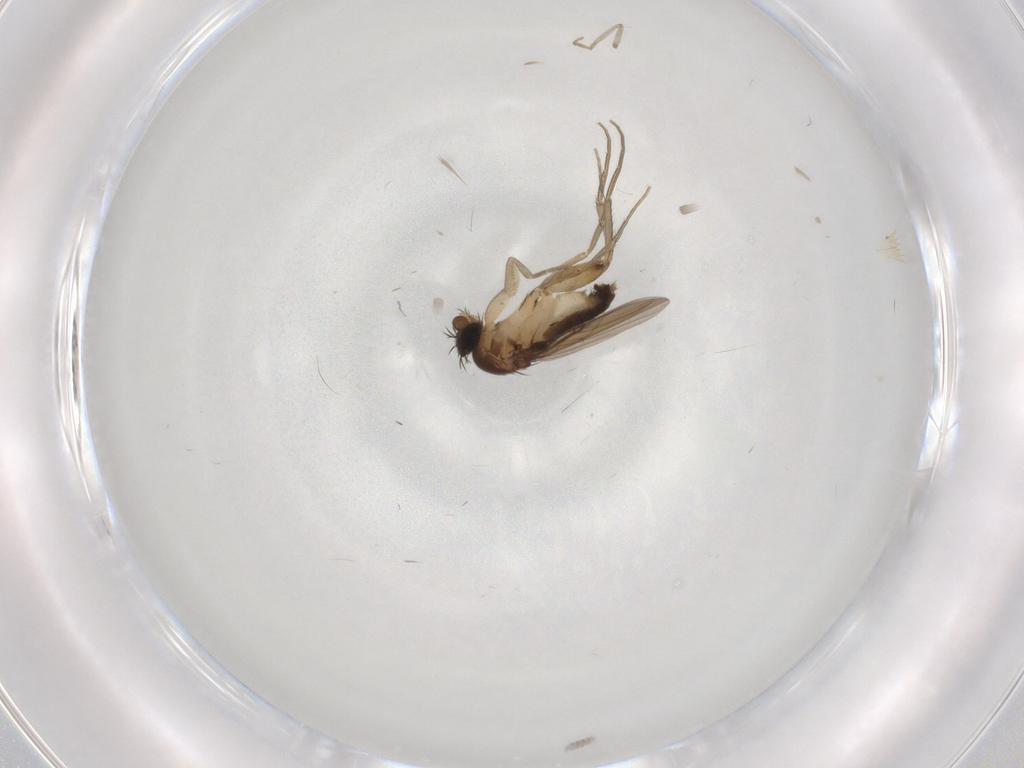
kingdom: Animalia
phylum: Arthropoda
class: Insecta
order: Diptera
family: Phoridae
